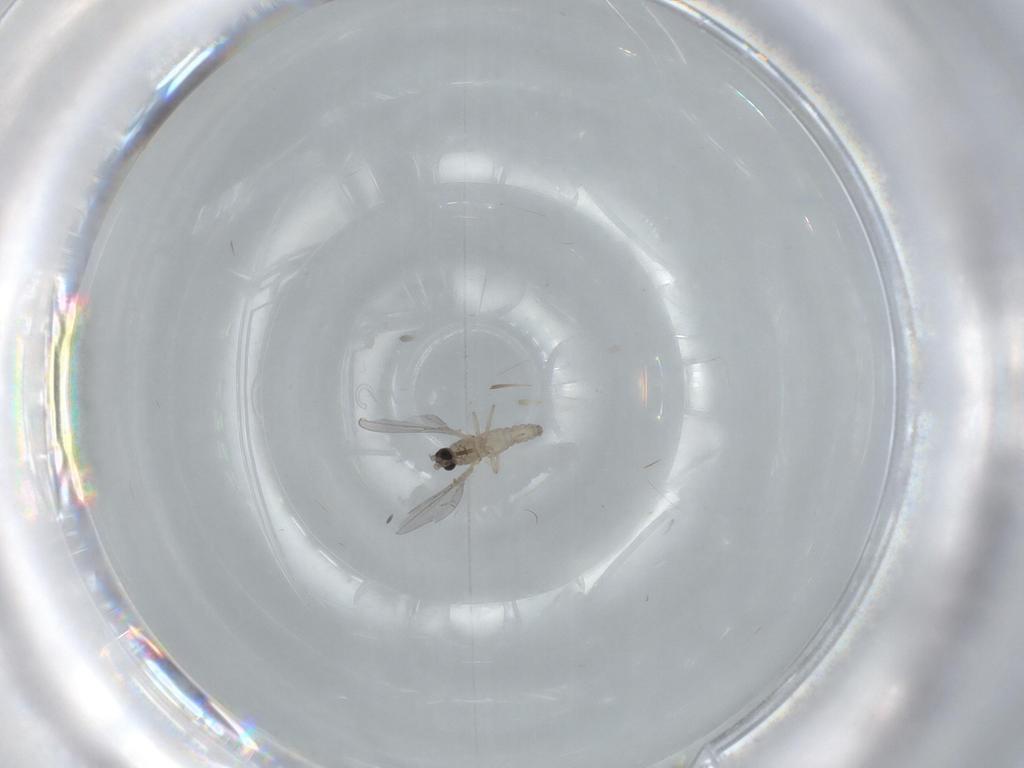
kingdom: Animalia
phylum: Arthropoda
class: Insecta
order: Diptera
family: Cecidomyiidae
